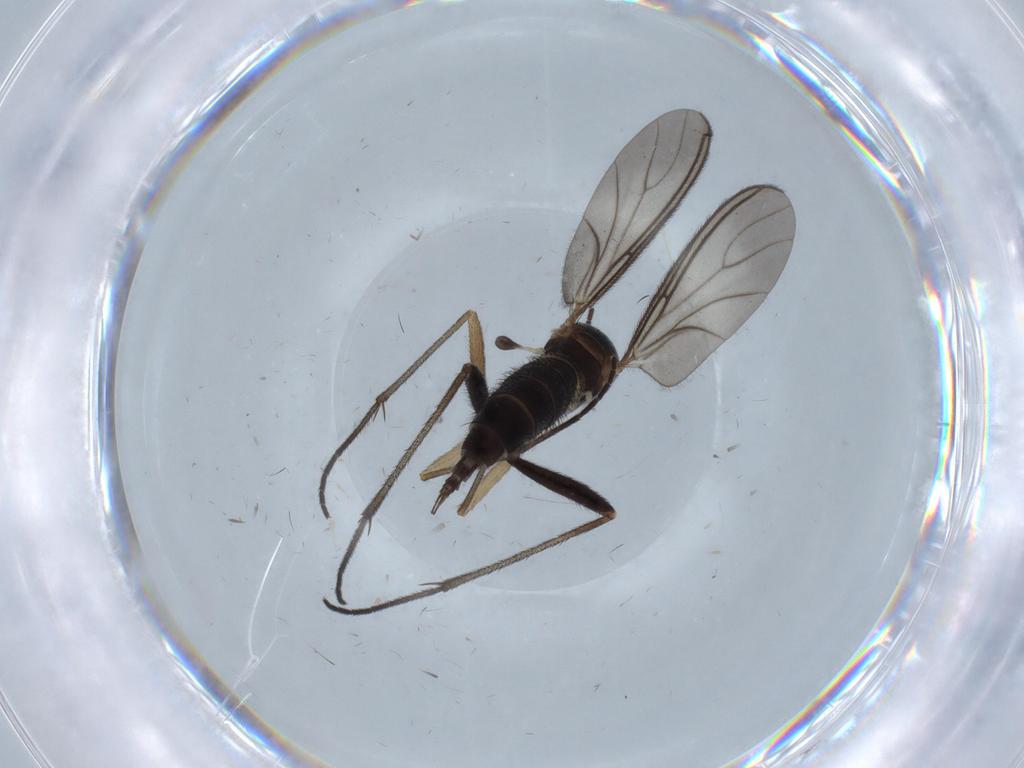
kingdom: Animalia
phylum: Arthropoda
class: Insecta
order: Diptera
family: Sciaridae
